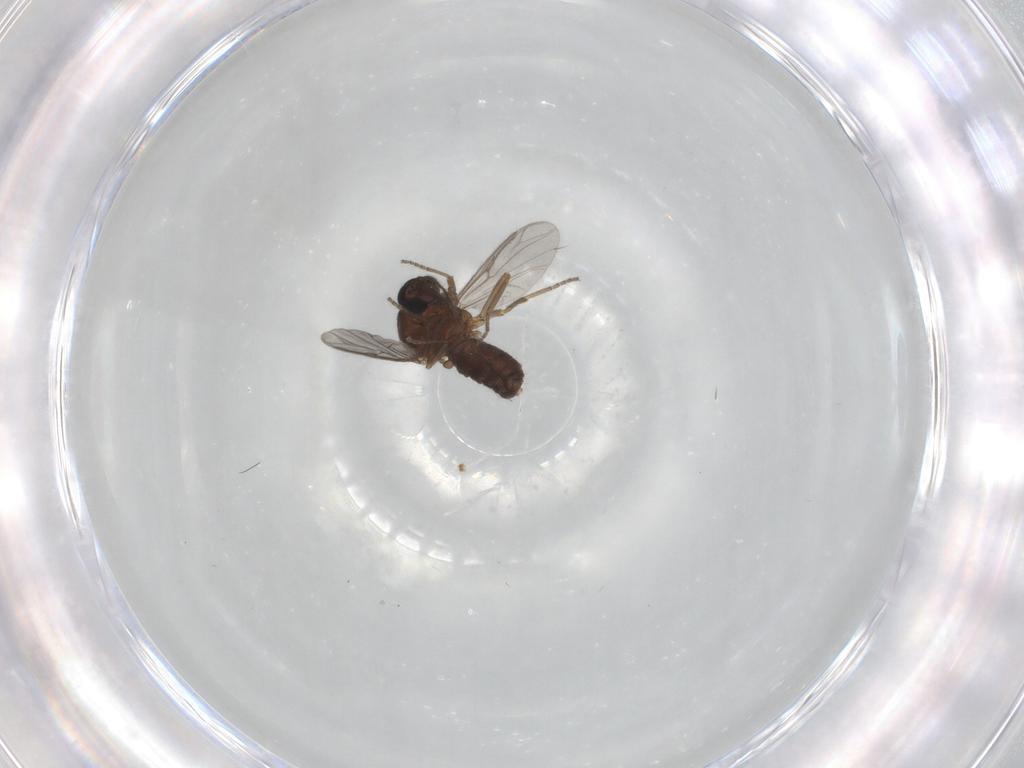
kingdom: Animalia
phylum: Arthropoda
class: Insecta
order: Diptera
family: Ceratopogonidae
